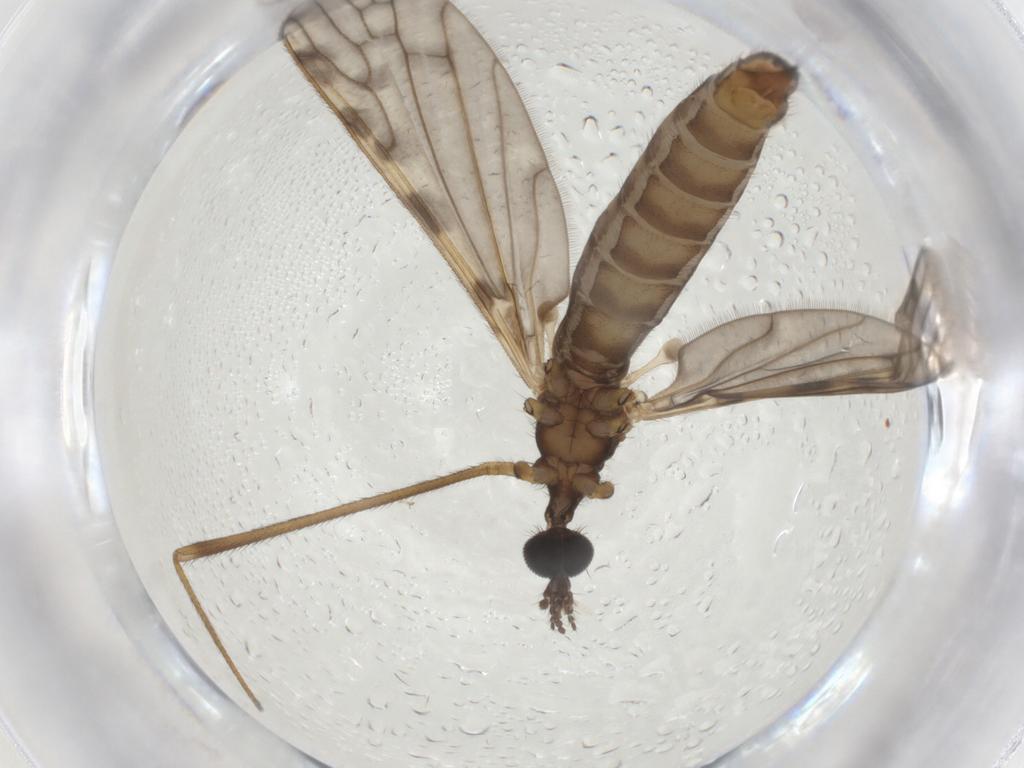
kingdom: Animalia
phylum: Arthropoda
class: Insecta
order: Diptera
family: Limoniidae
